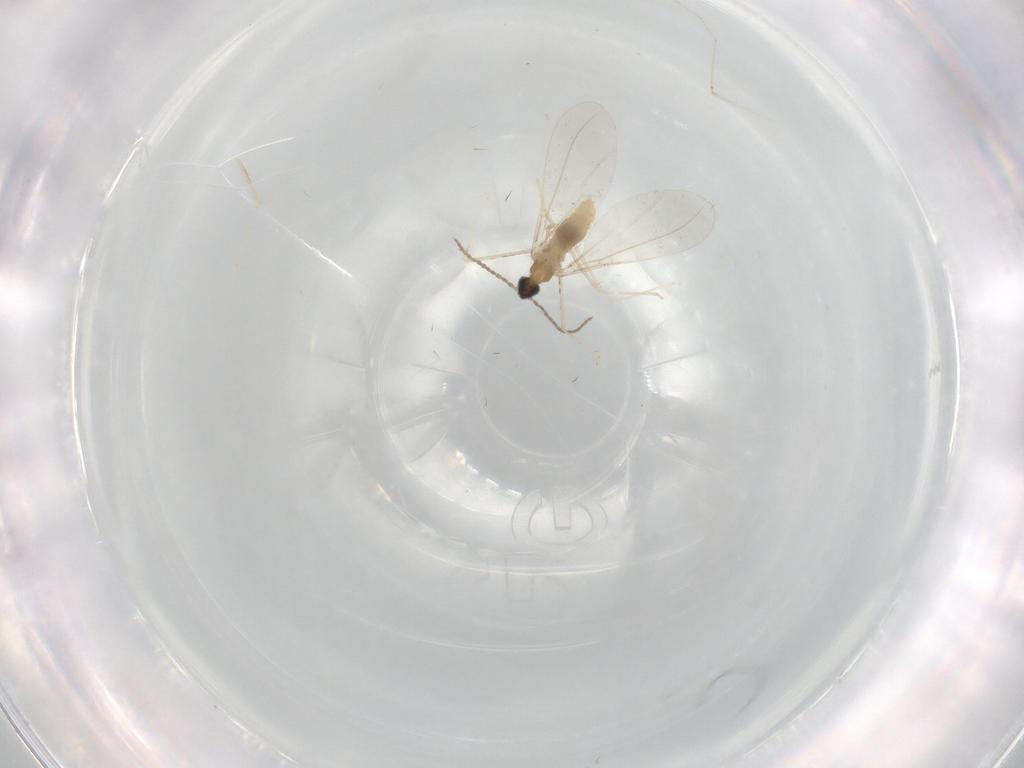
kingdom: Animalia
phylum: Arthropoda
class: Insecta
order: Diptera
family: Cecidomyiidae
